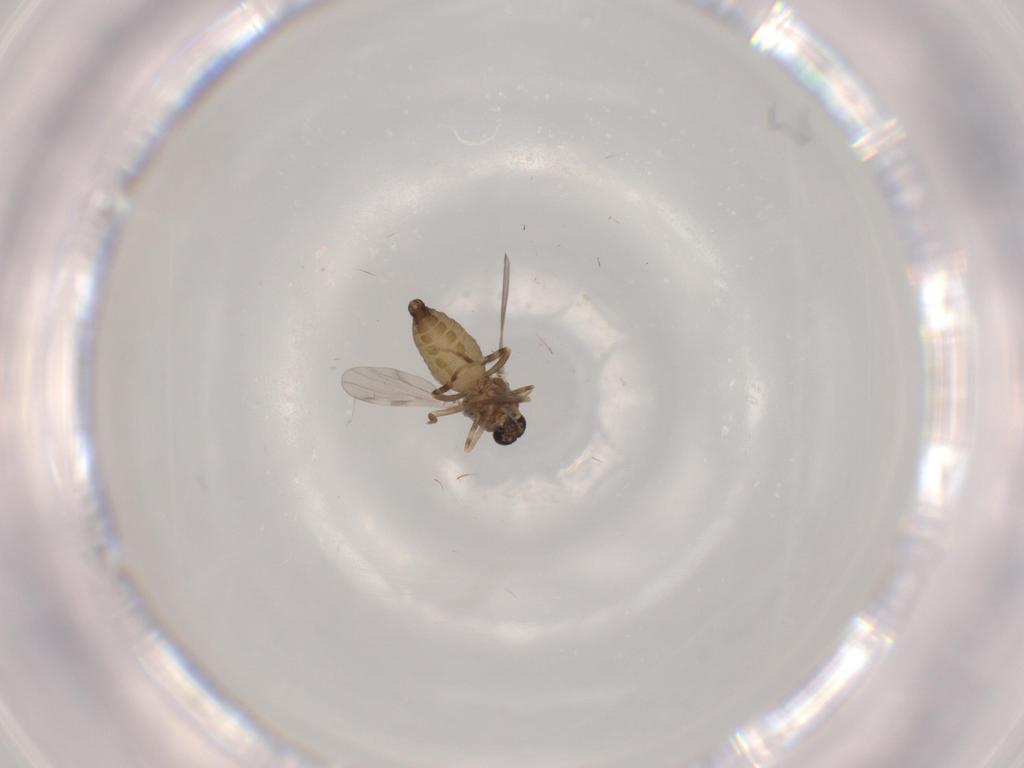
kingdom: Animalia
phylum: Arthropoda
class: Insecta
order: Diptera
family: Ceratopogonidae
